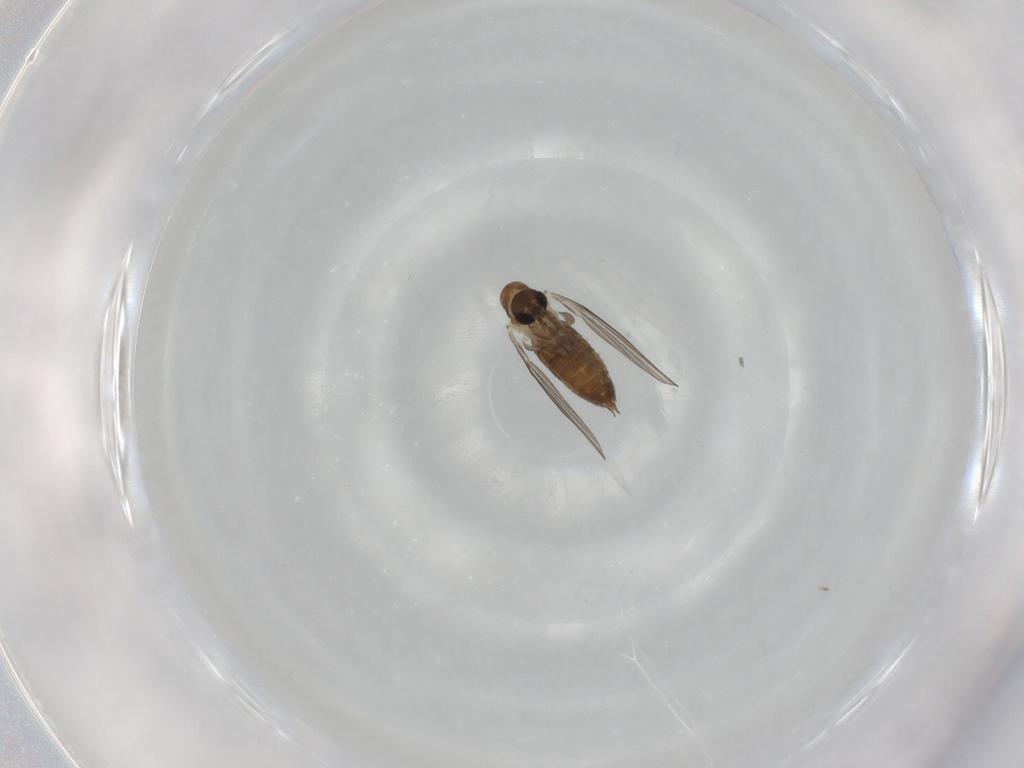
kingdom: Animalia
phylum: Arthropoda
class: Insecta
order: Diptera
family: Psychodidae
